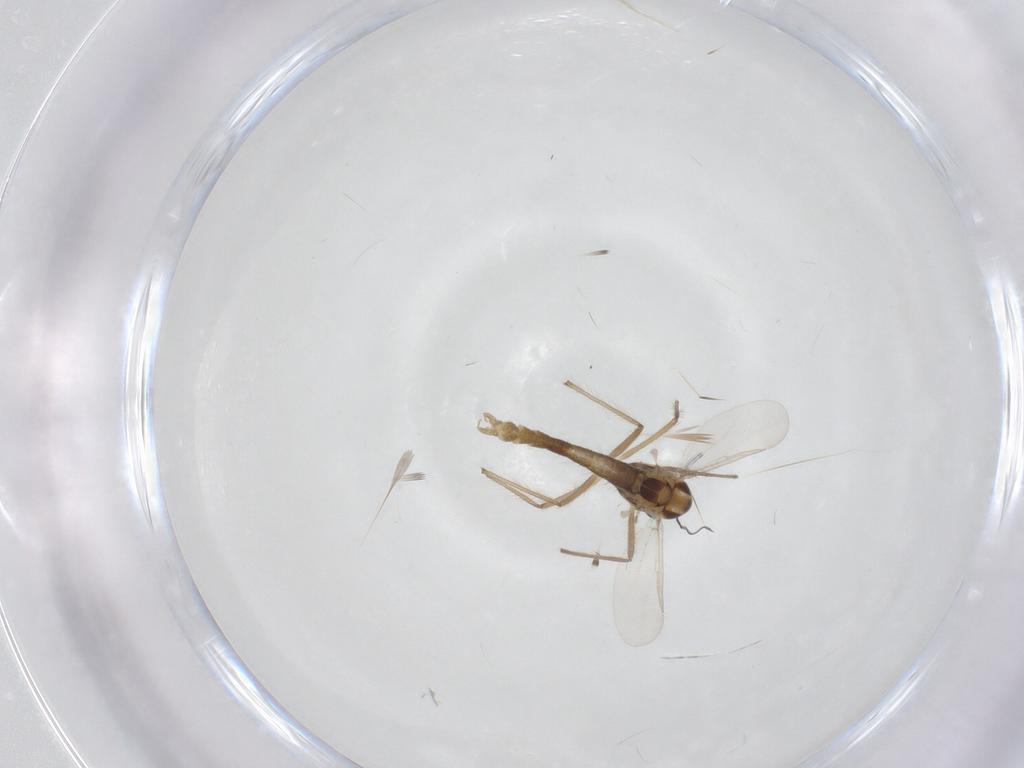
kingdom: Animalia
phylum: Arthropoda
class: Insecta
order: Diptera
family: Chironomidae
